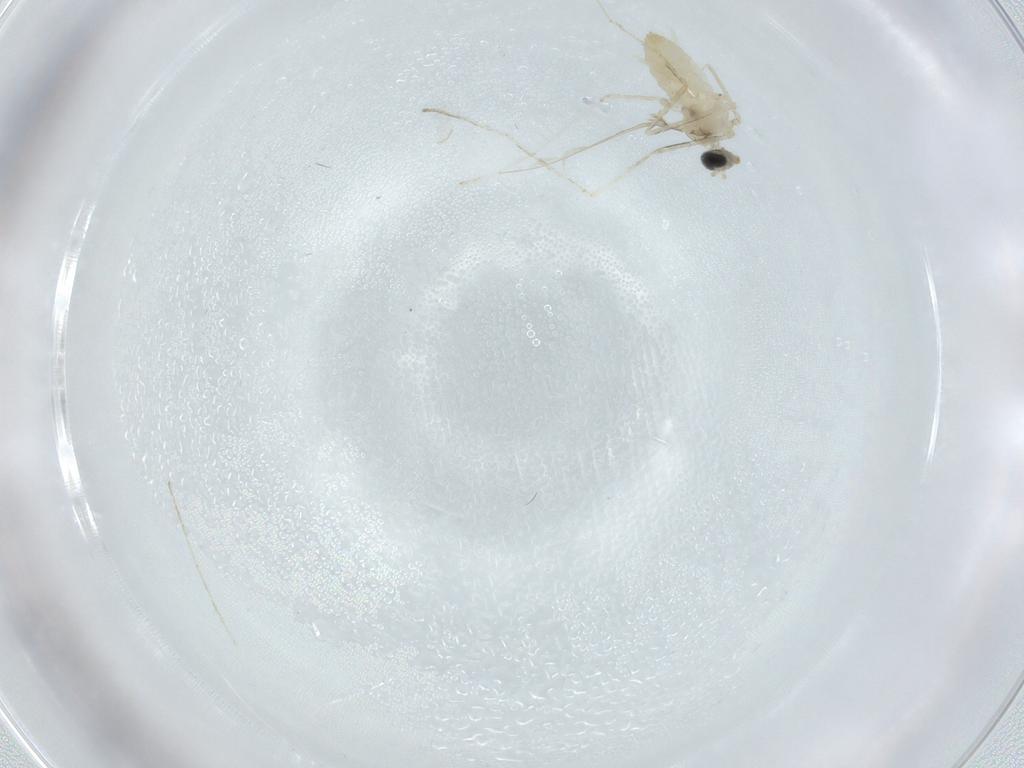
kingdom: Animalia
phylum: Arthropoda
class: Insecta
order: Diptera
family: Cecidomyiidae
